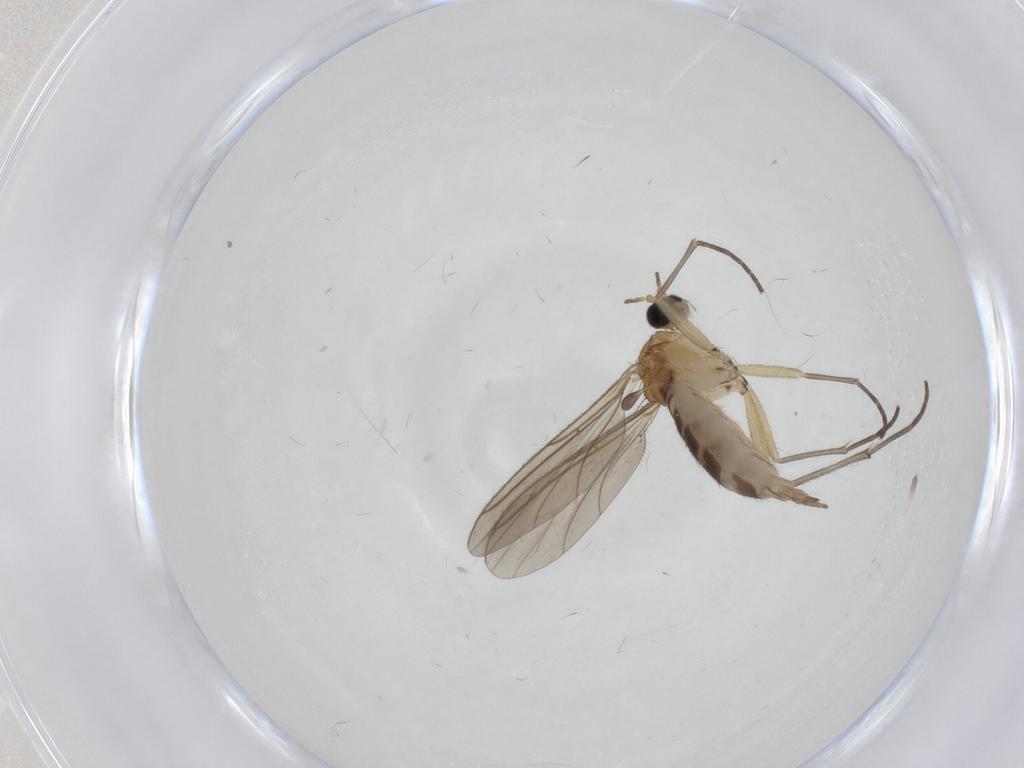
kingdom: Animalia
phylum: Arthropoda
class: Insecta
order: Diptera
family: Sciaridae
